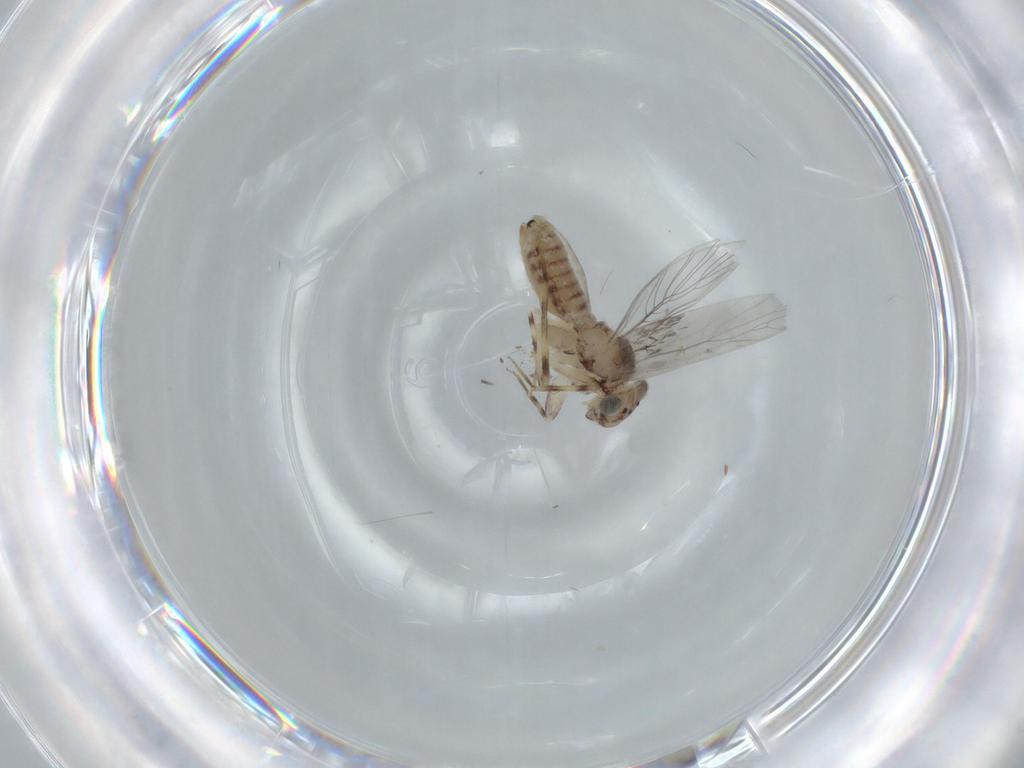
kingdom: Animalia
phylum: Arthropoda
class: Insecta
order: Psocodea
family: Lepidopsocidae
